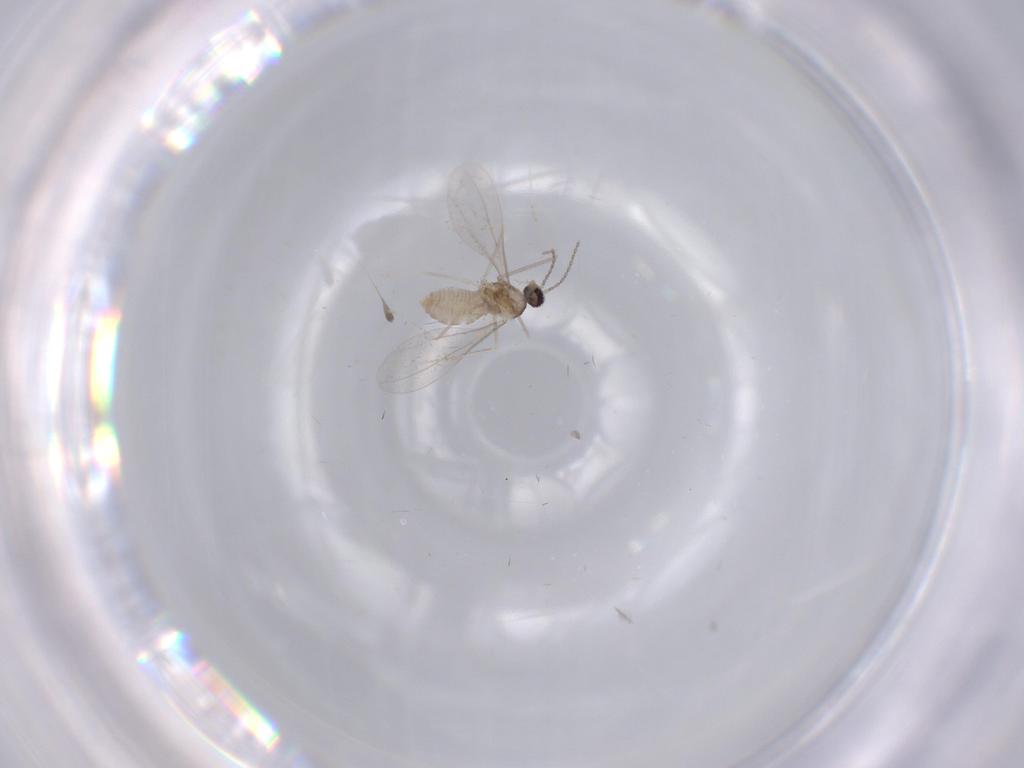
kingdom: Animalia
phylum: Arthropoda
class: Insecta
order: Diptera
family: Cecidomyiidae
